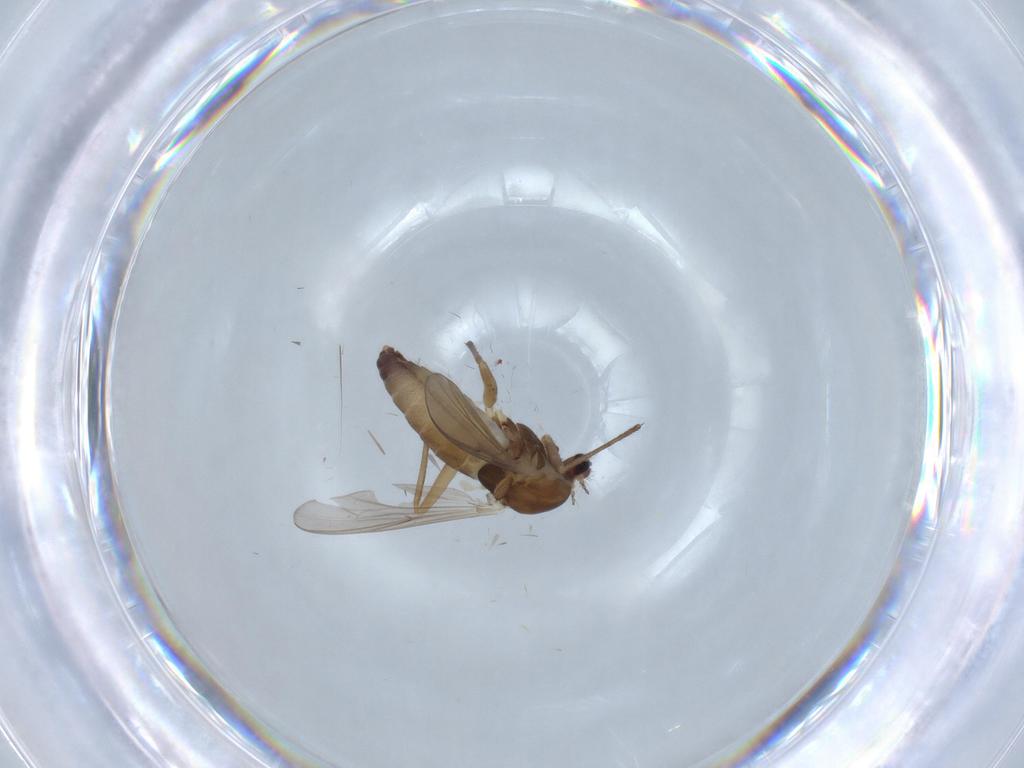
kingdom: Animalia
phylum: Arthropoda
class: Insecta
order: Diptera
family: Chironomidae
